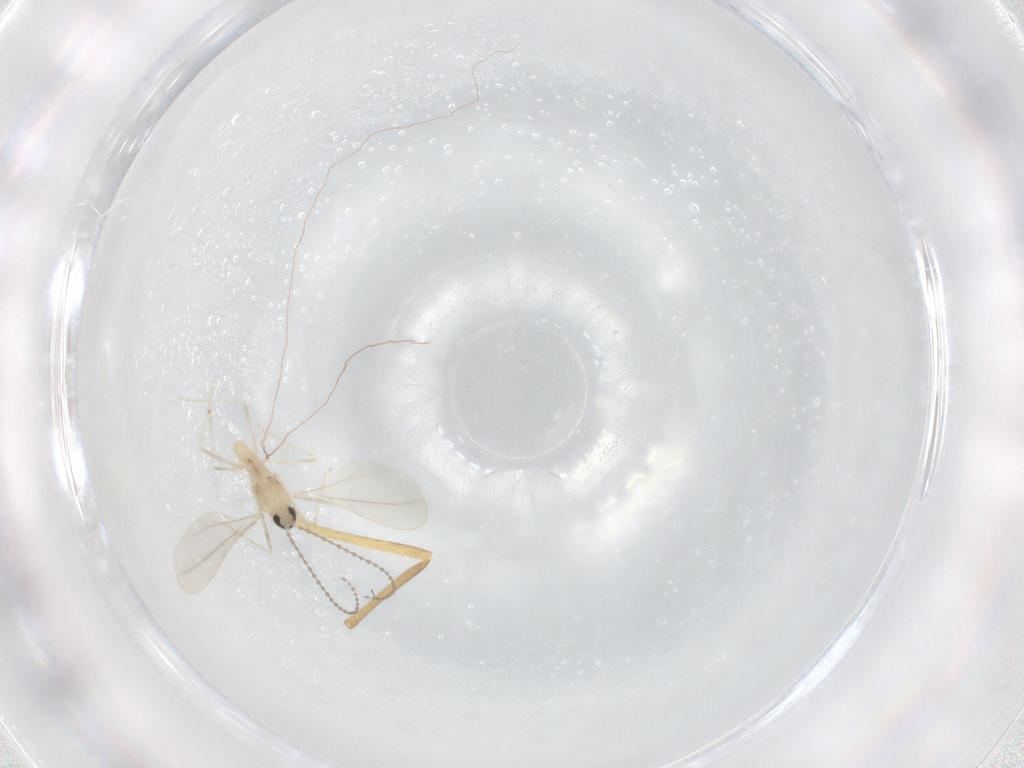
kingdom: Animalia
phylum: Arthropoda
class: Insecta
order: Diptera
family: Cecidomyiidae
